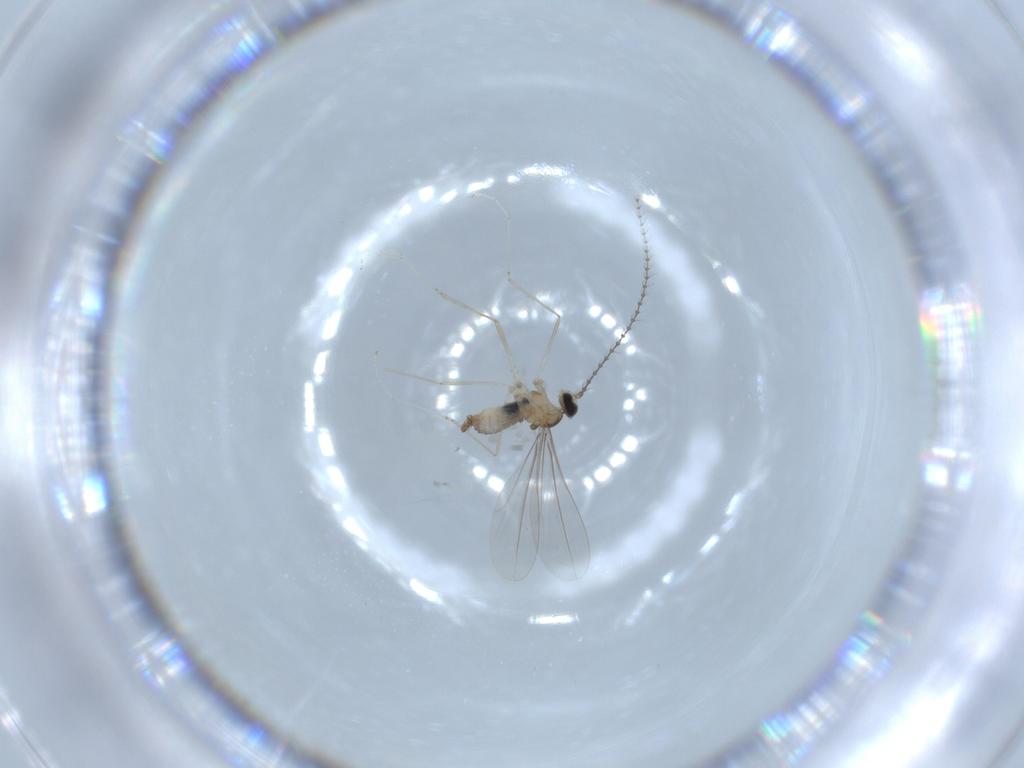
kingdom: Animalia
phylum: Arthropoda
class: Insecta
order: Diptera
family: Cecidomyiidae
